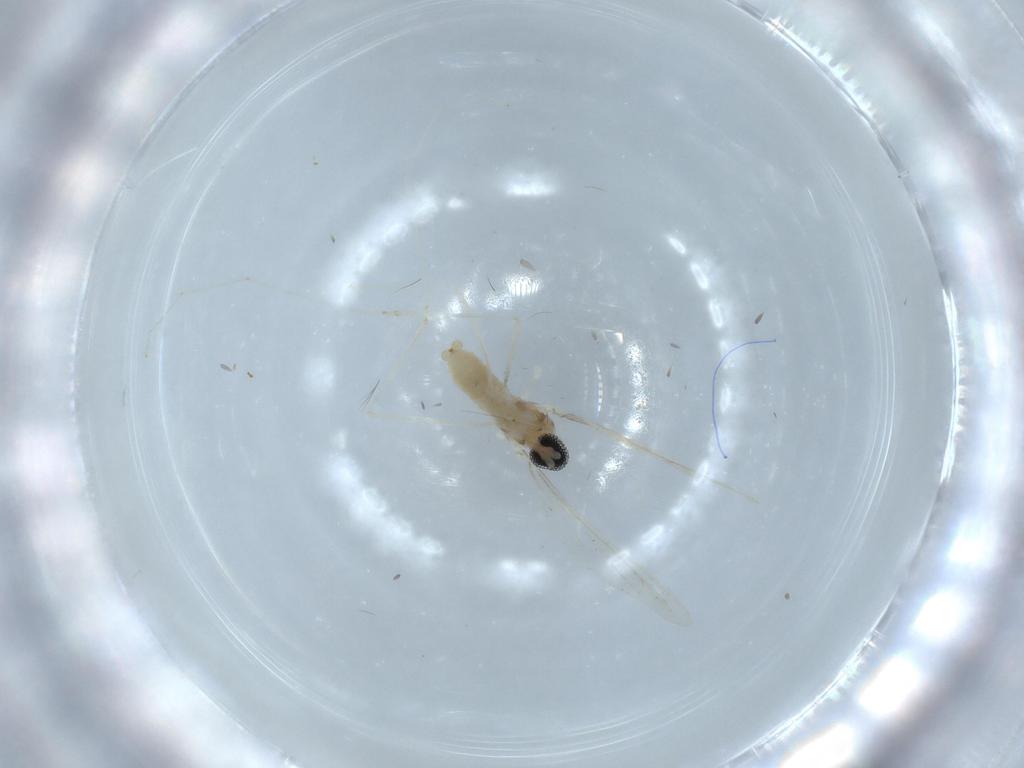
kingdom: Animalia
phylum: Arthropoda
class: Insecta
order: Diptera
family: Cecidomyiidae
